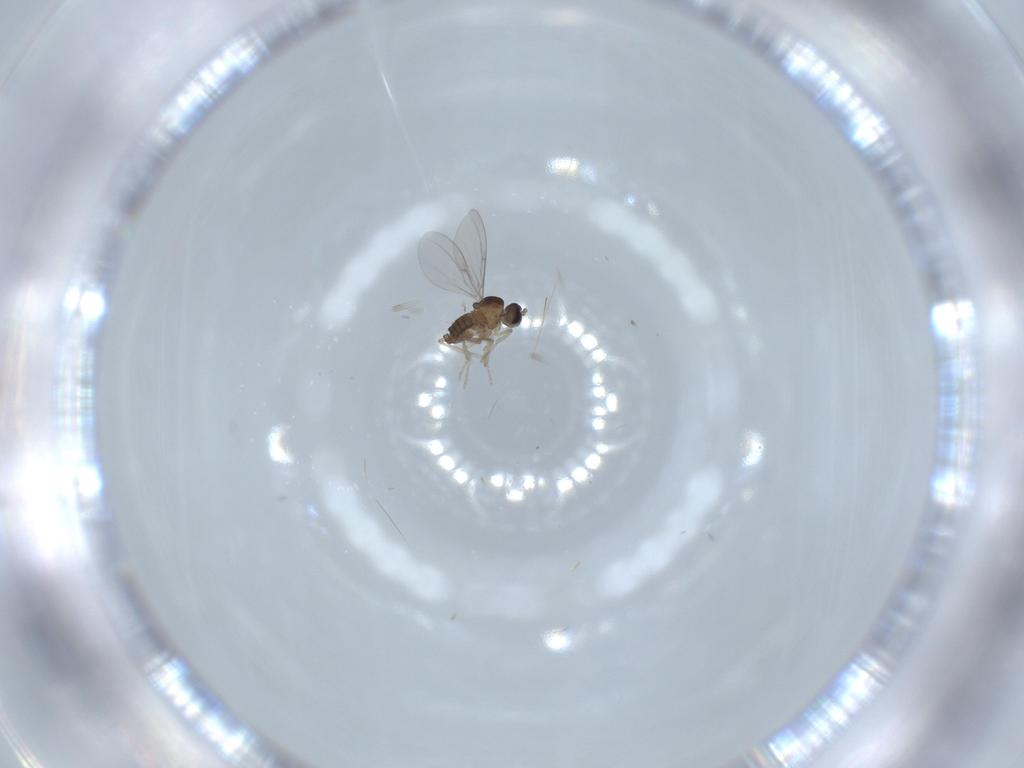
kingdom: Animalia
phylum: Arthropoda
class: Insecta
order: Diptera
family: Cecidomyiidae
